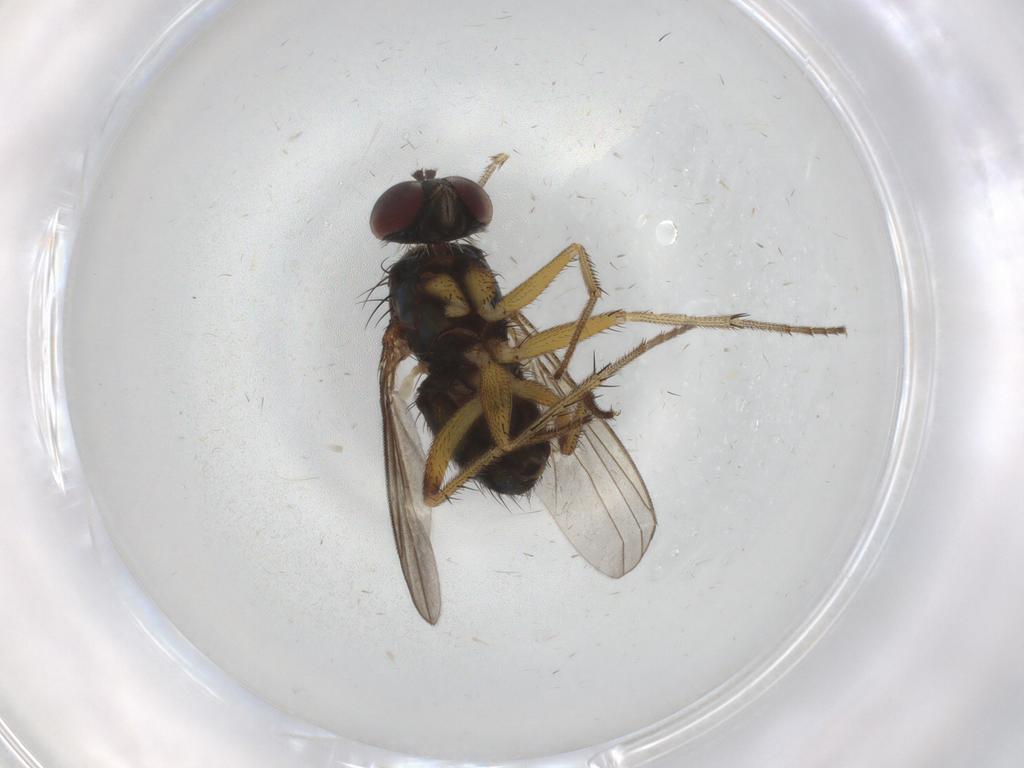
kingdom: Animalia
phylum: Arthropoda
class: Insecta
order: Diptera
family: Dolichopodidae
